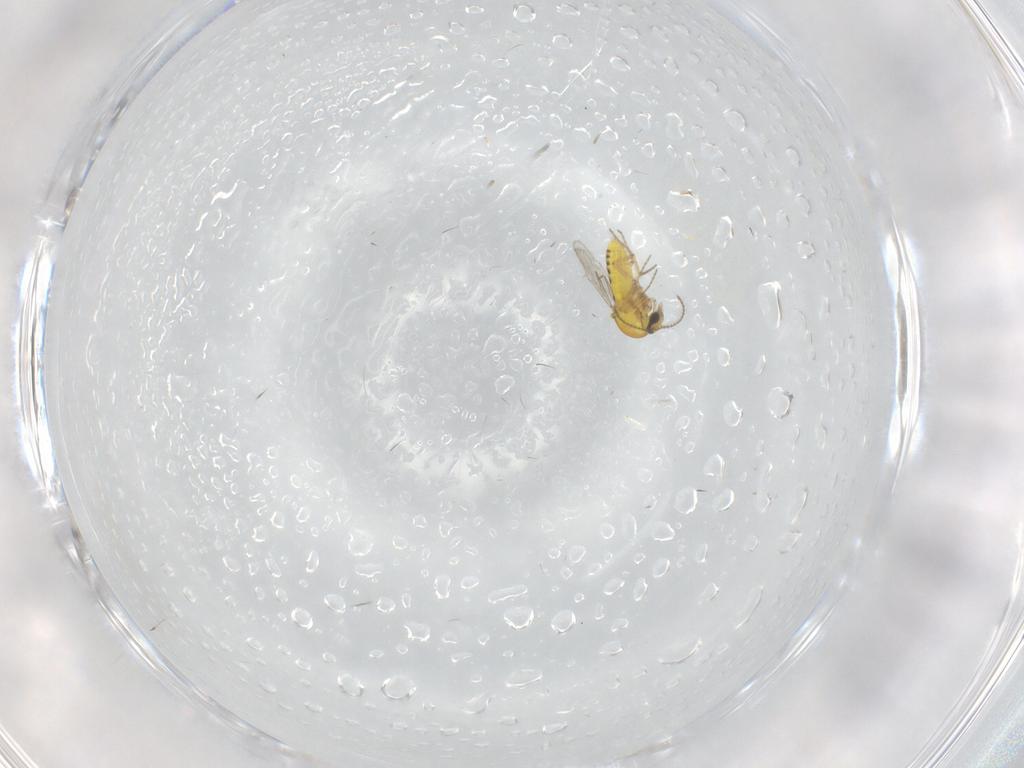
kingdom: Animalia
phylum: Arthropoda
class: Insecta
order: Diptera
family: Ceratopogonidae
